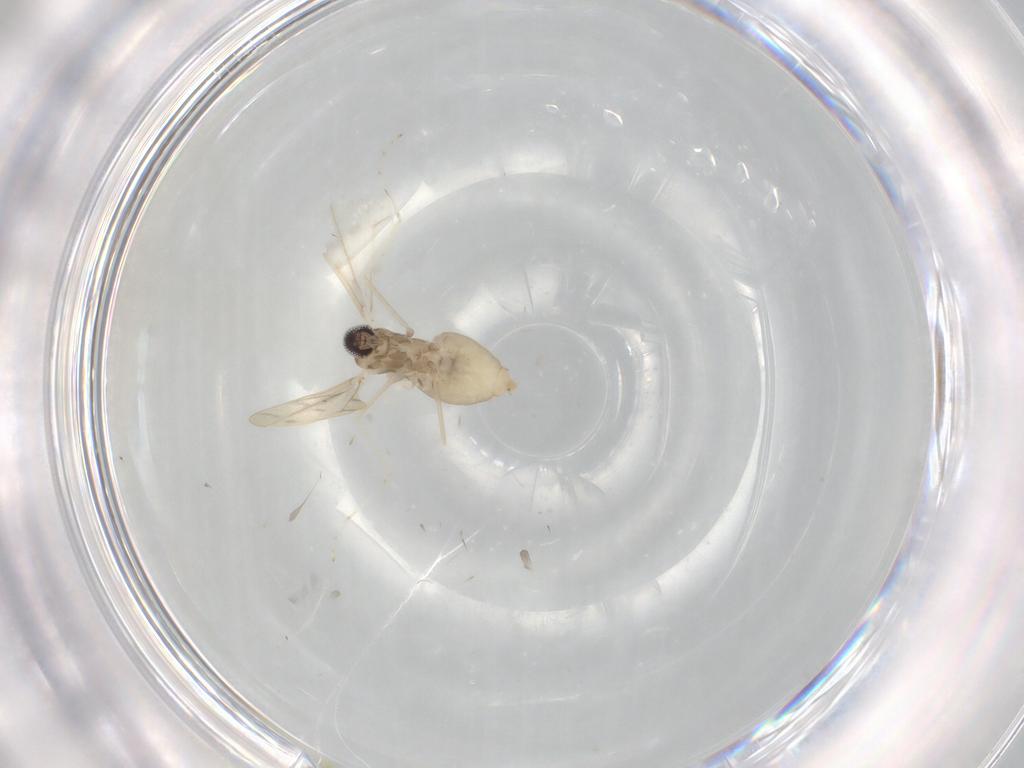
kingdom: Animalia
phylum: Arthropoda
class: Insecta
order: Diptera
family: Cecidomyiidae
